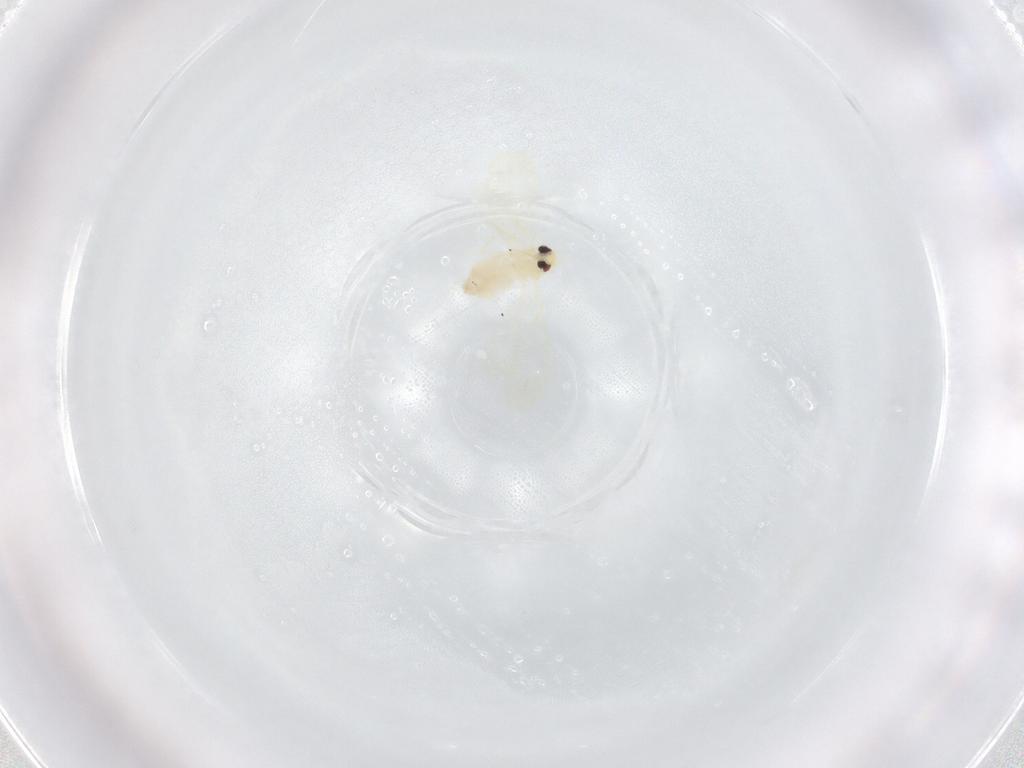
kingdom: Animalia
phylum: Arthropoda
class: Insecta
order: Hemiptera
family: Aleyrodidae
